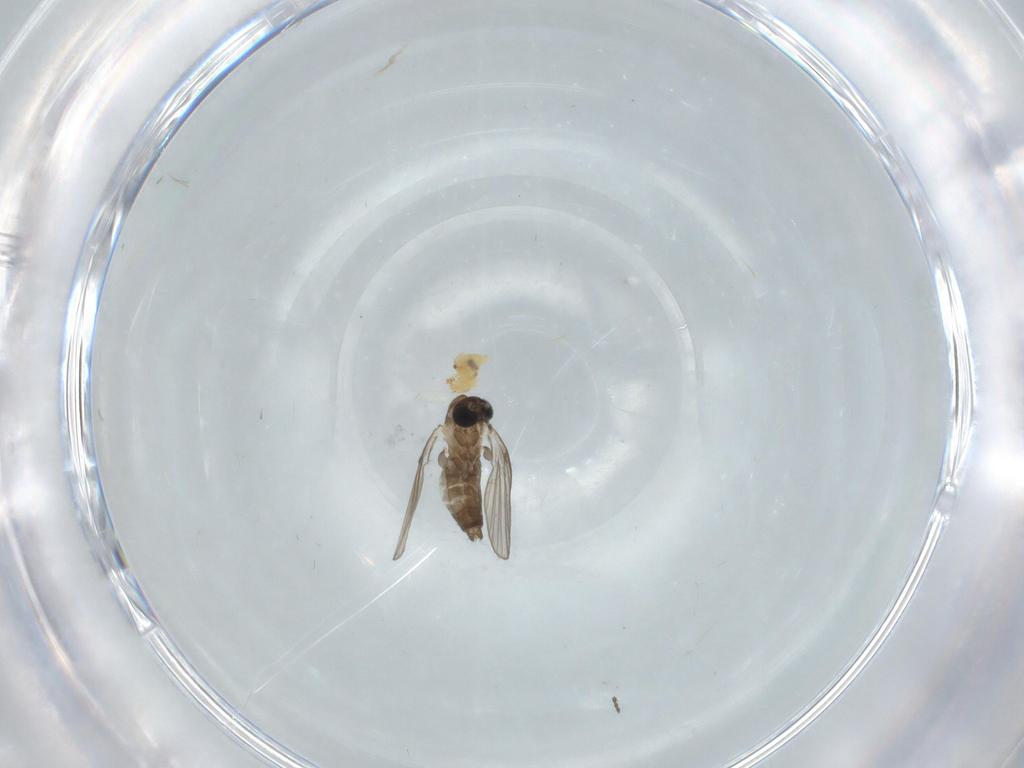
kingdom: Animalia
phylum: Arthropoda
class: Insecta
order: Diptera
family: Psychodidae
